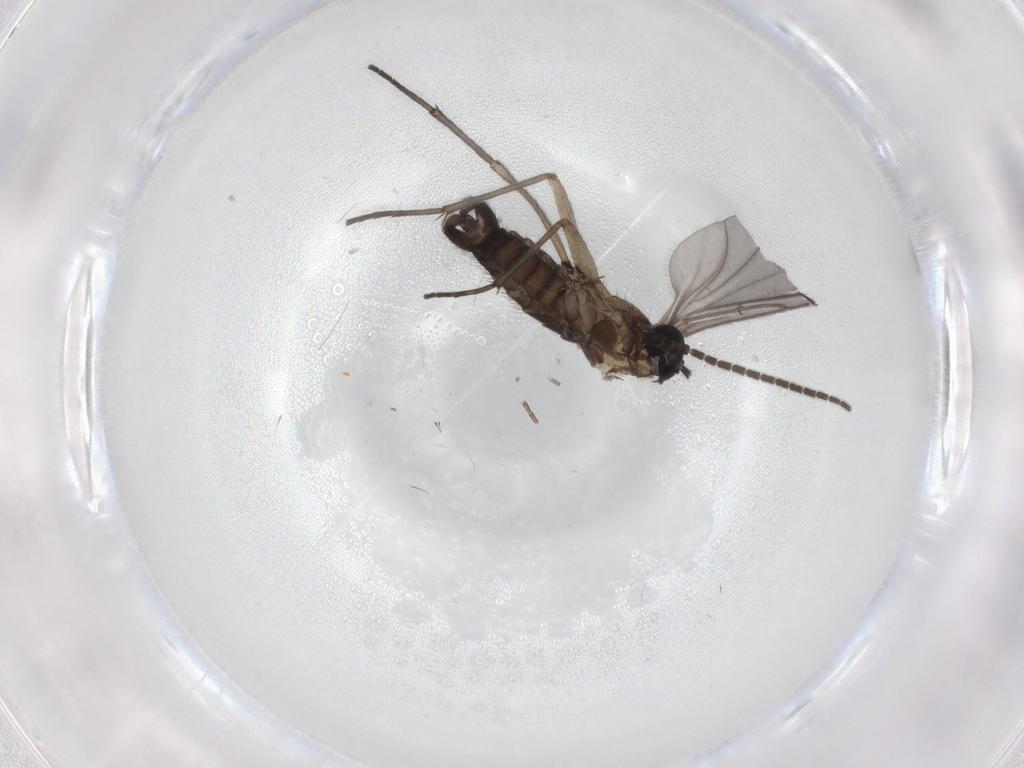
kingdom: Animalia
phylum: Arthropoda
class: Insecta
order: Diptera
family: Sciaridae
